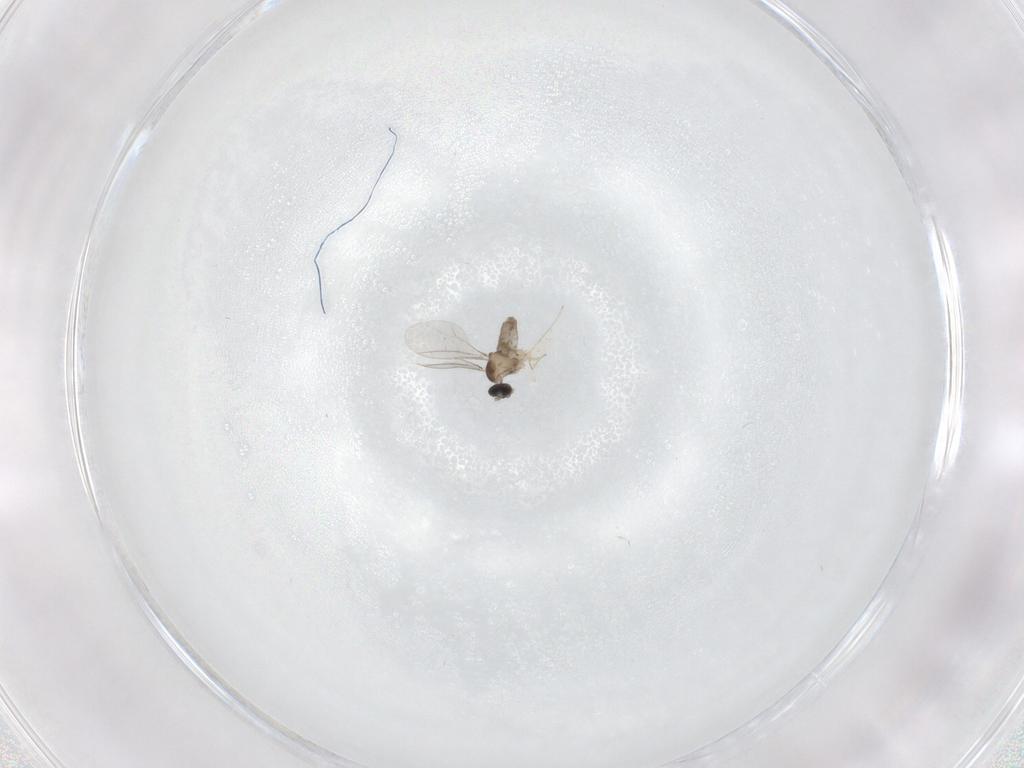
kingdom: Animalia
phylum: Arthropoda
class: Insecta
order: Diptera
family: Cecidomyiidae
